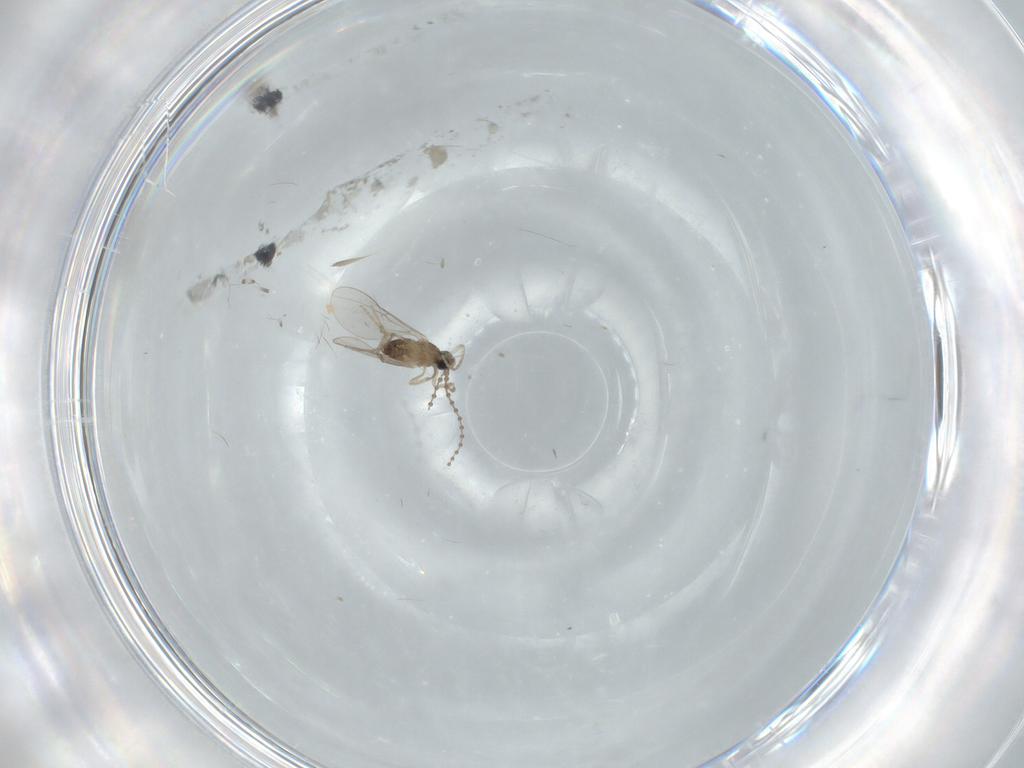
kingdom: Animalia
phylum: Arthropoda
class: Insecta
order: Diptera
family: Cecidomyiidae
